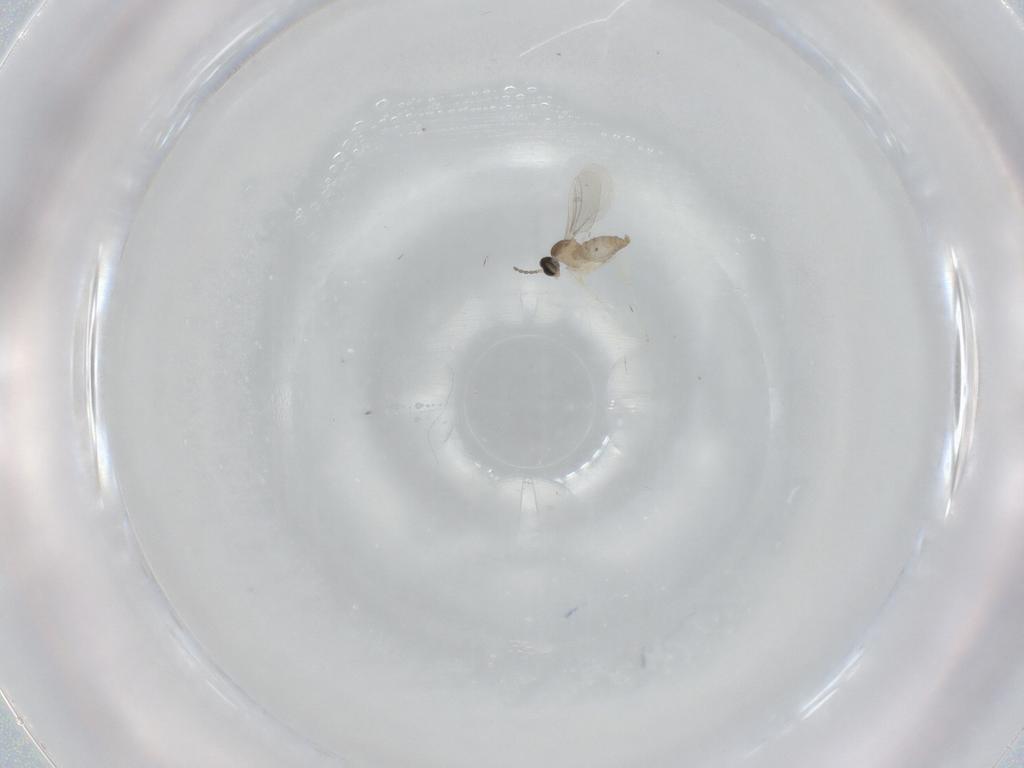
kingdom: Animalia
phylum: Arthropoda
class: Insecta
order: Diptera
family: Cecidomyiidae
